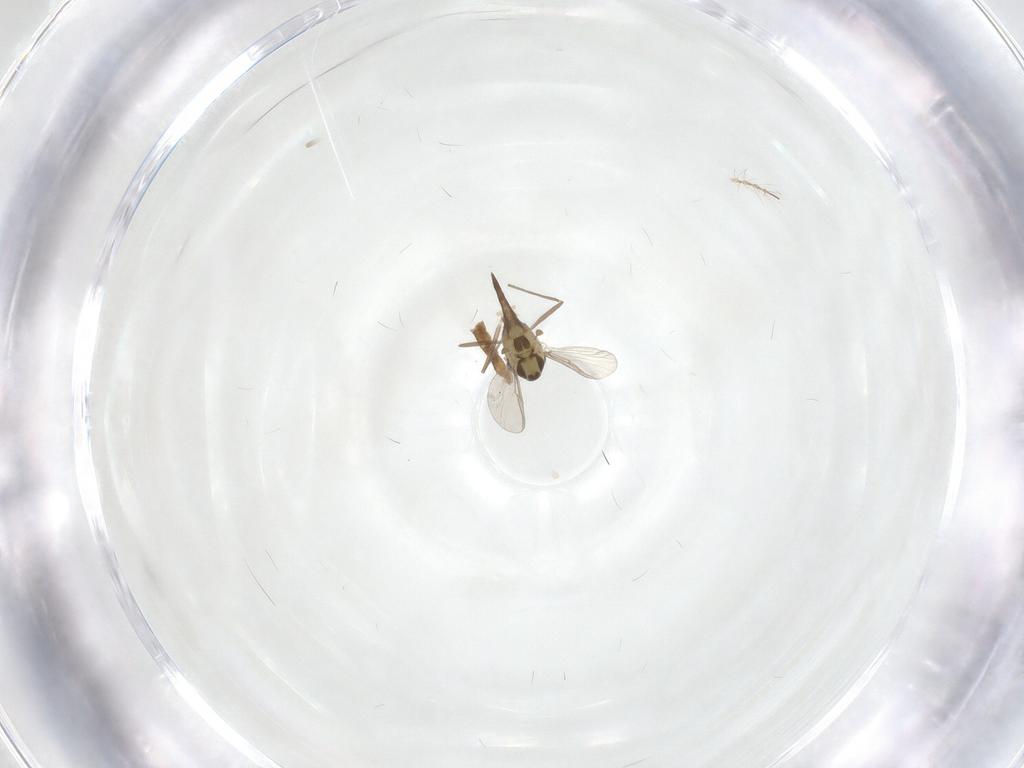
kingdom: Animalia
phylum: Arthropoda
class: Insecta
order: Diptera
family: Chironomidae
